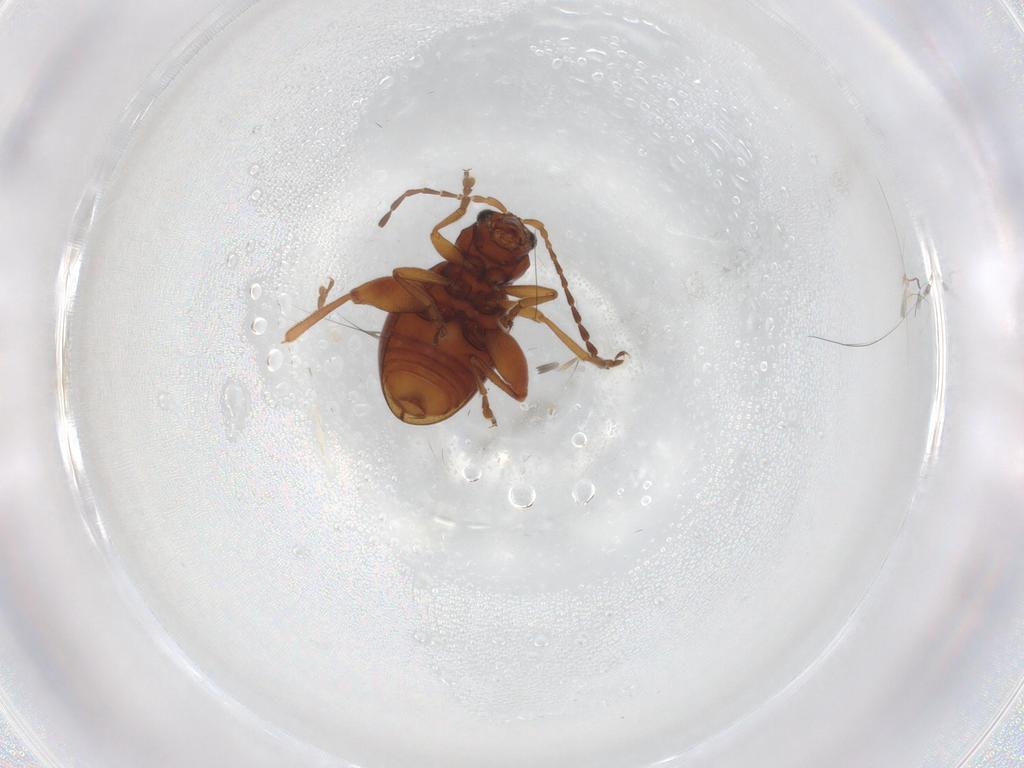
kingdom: Animalia
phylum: Arthropoda
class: Insecta
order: Coleoptera
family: Chrysomelidae
